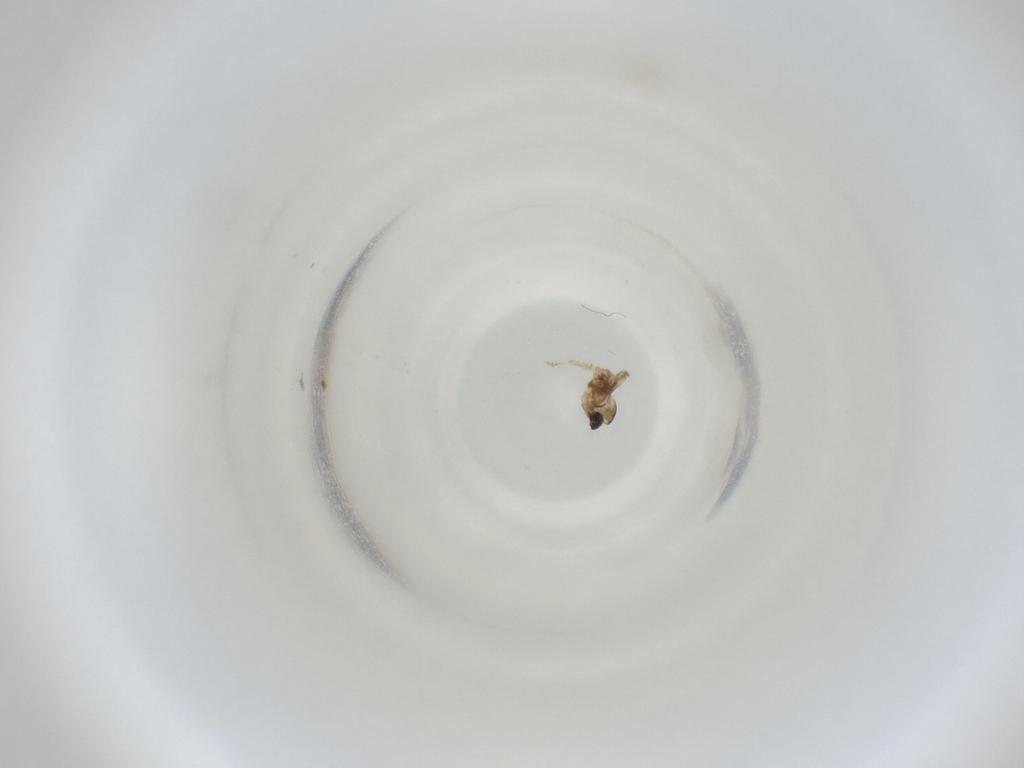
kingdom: Animalia
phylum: Arthropoda
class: Insecta
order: Diptera
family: Cecidomyiidae
